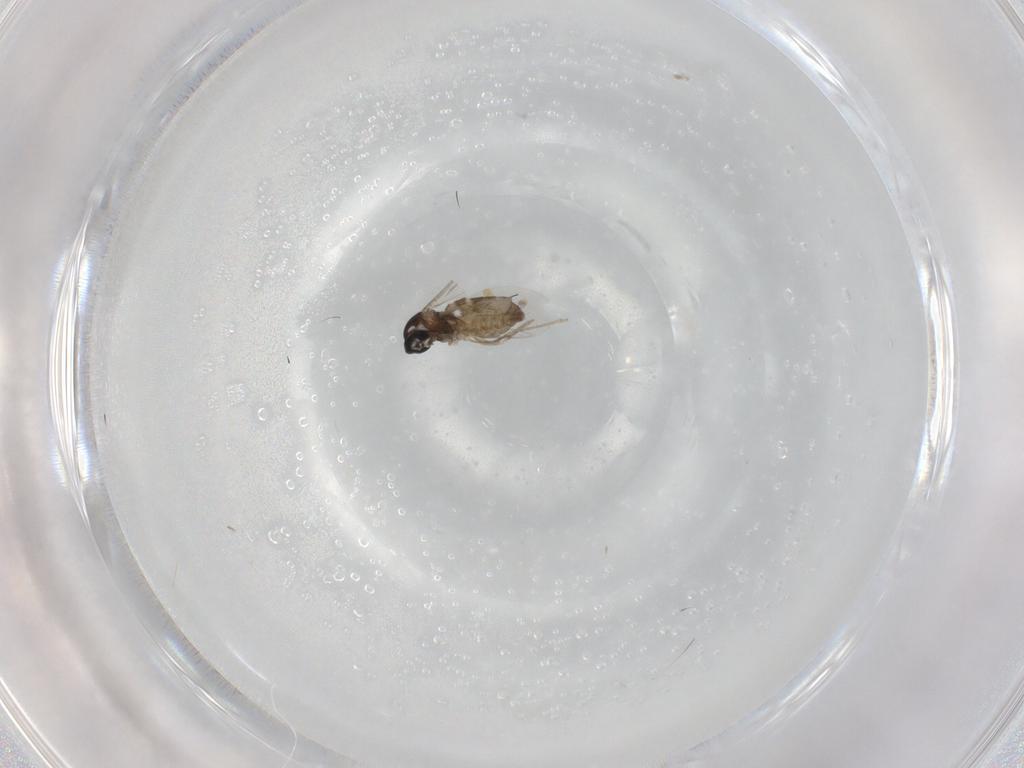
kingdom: Animalia
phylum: Arthropoda
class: Insecta
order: Diptera
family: Cecidomyiidae
